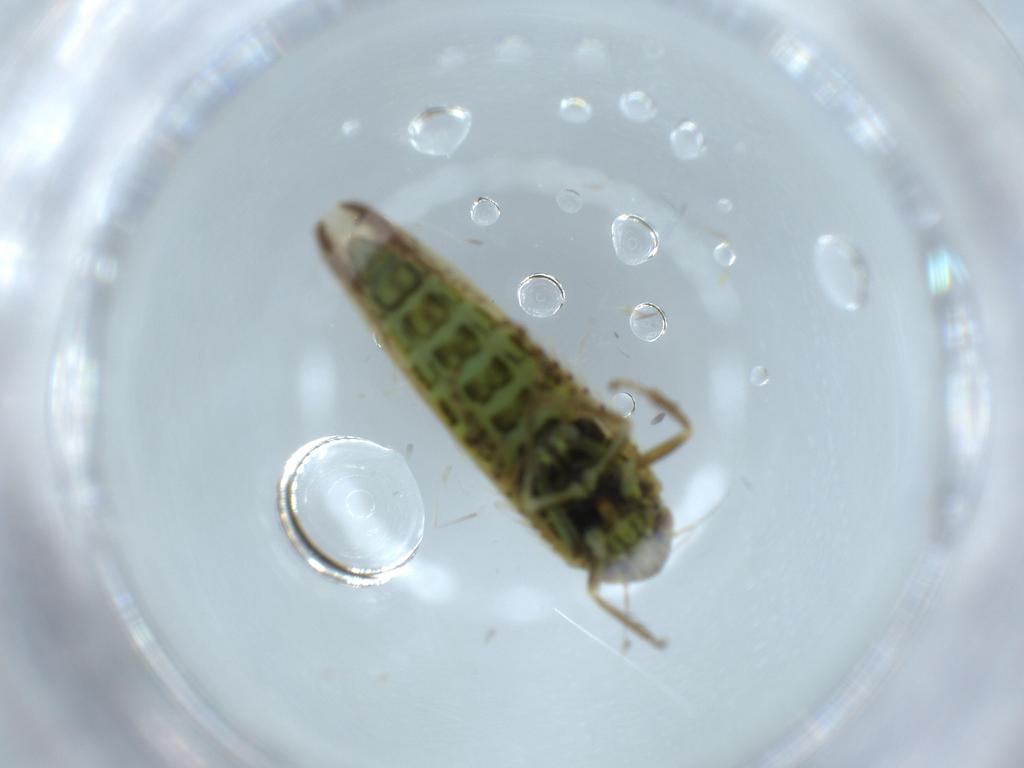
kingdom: Animalia
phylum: Arthropoda
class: Insecta
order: Hemiptera
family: Cicadellidae
